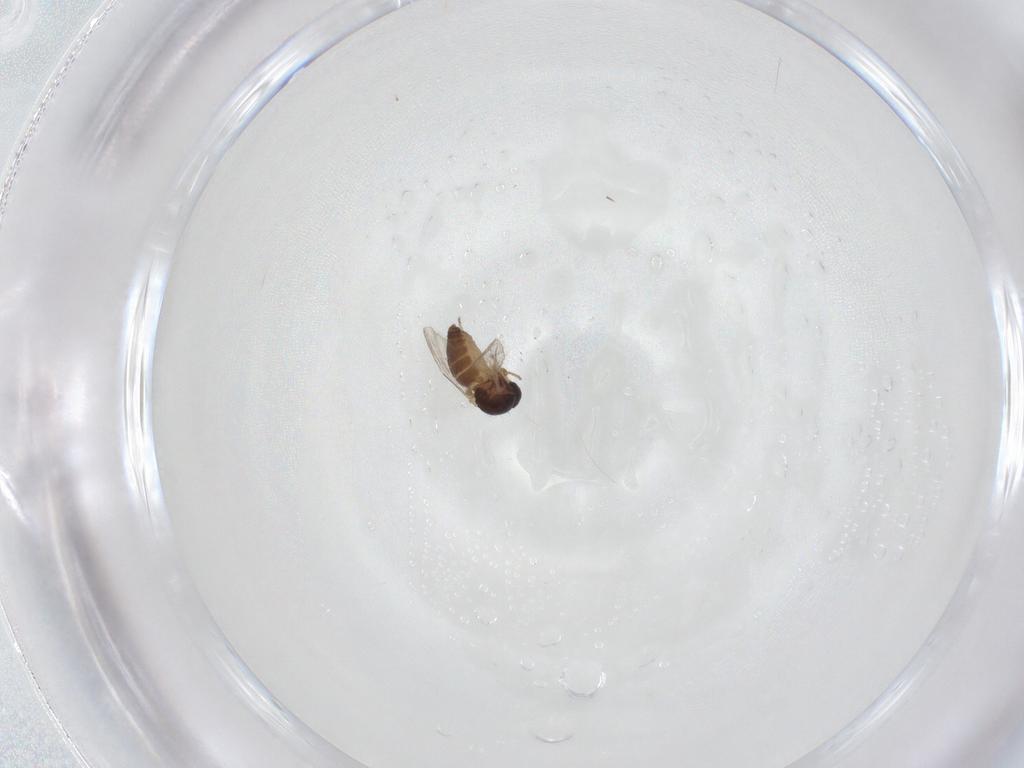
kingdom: Animalia
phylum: Arthropoda
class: Insecta
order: Diptera
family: Ceratopogonidae
